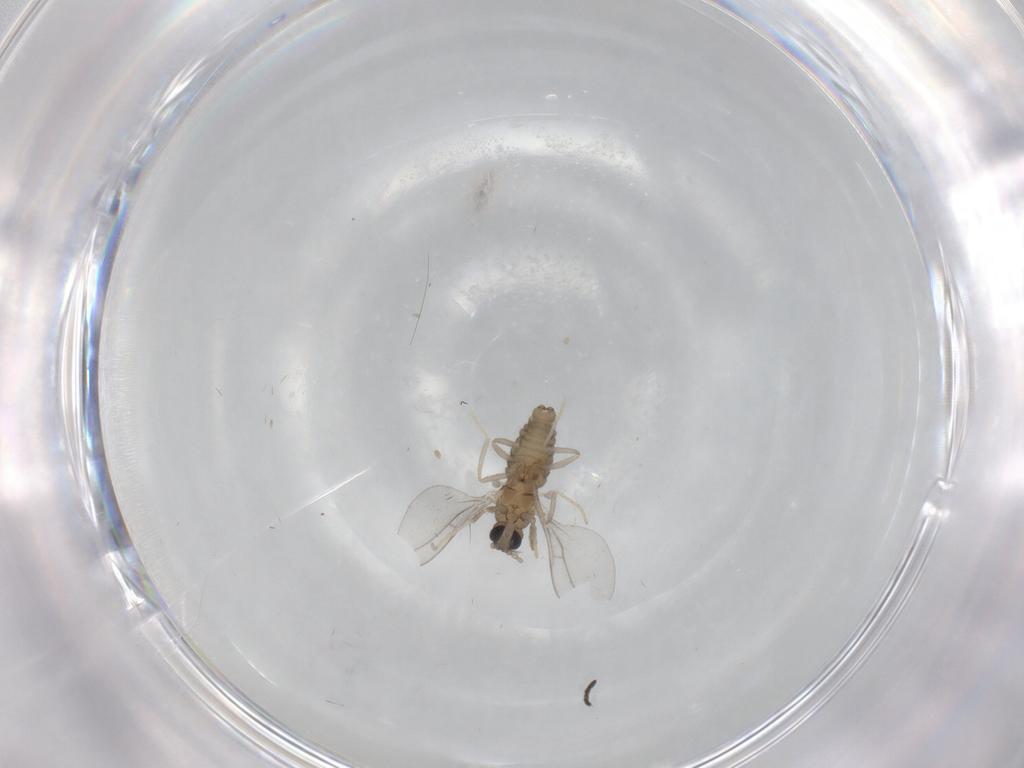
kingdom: Animalia
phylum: Arthropoda
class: Insecta
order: Diptera
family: Cecidomyiidae
